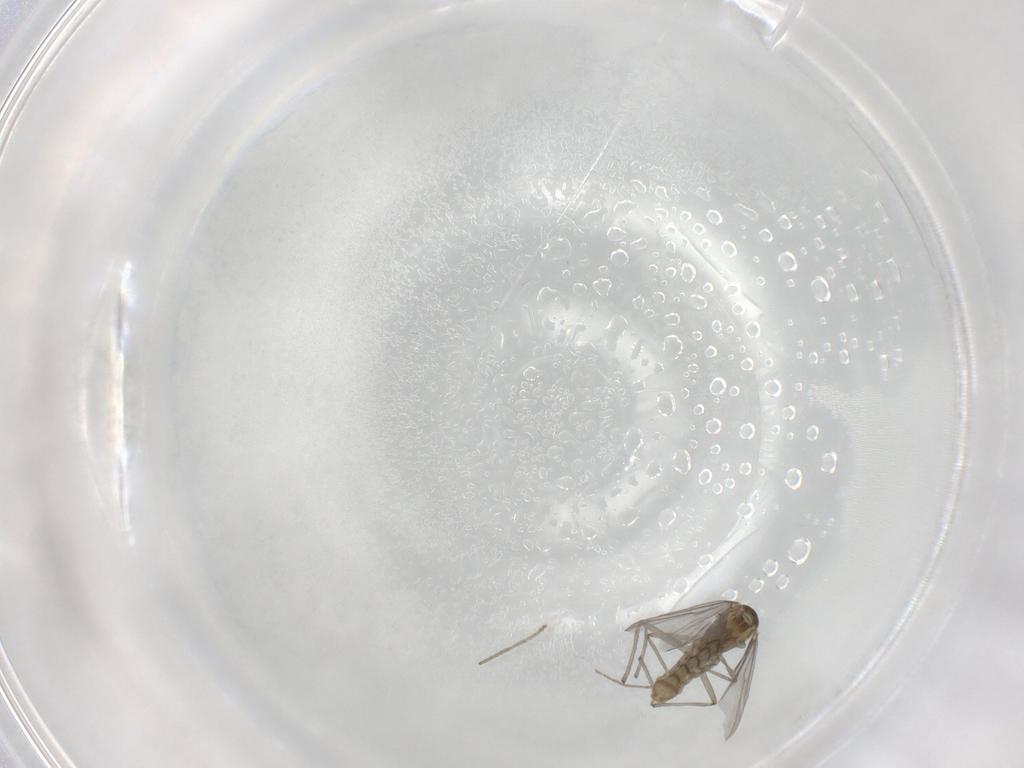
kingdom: Animalia
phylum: Arthropoda
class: Insecta
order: Diptera
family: Chironomidae
